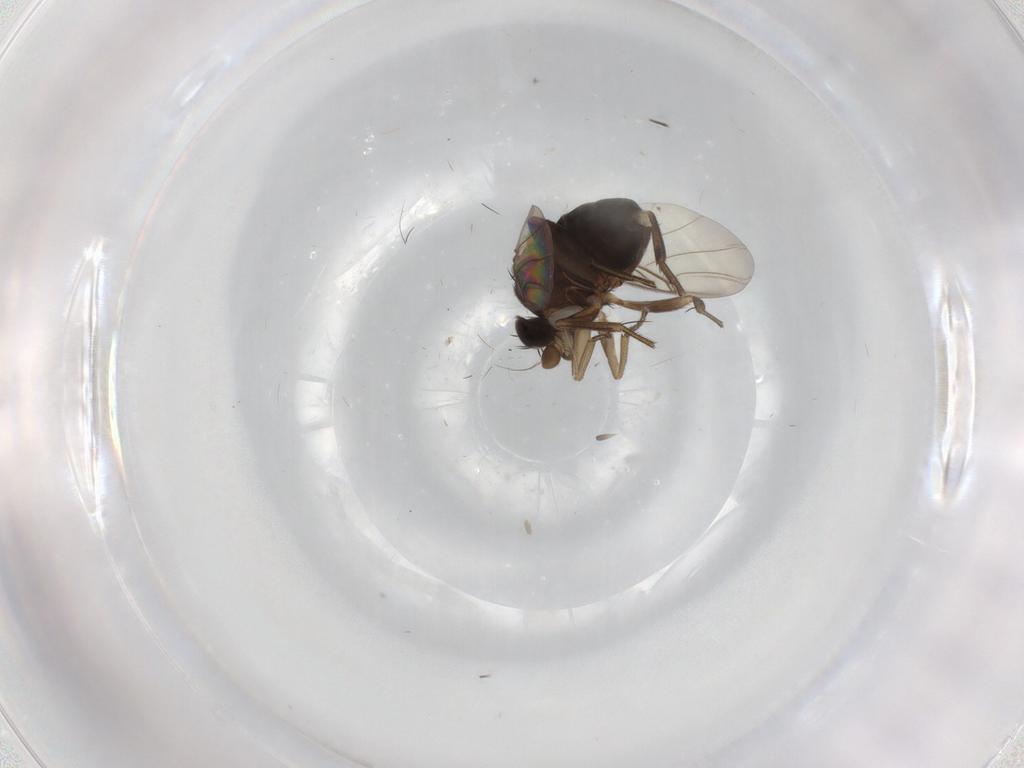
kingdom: Animalia
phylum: Arthropoda
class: Insecta
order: Diptera
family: Phoridae
